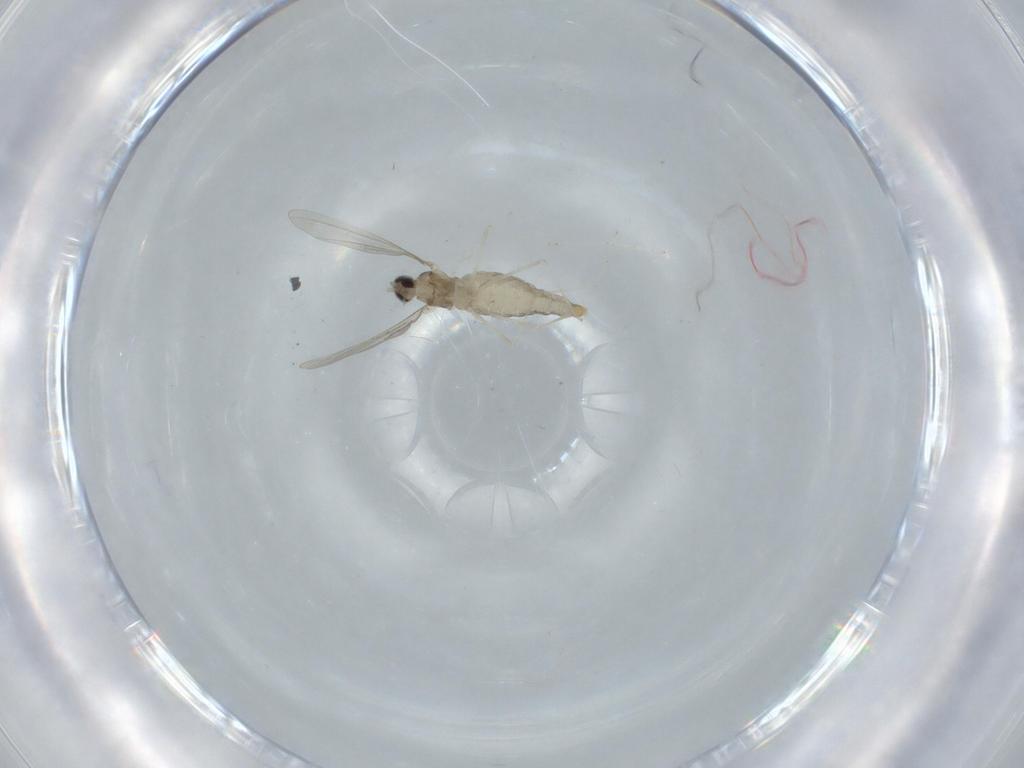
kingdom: Animalia
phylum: Arthropoda
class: Insecta
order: Diptera
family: Cecidomyiidae
